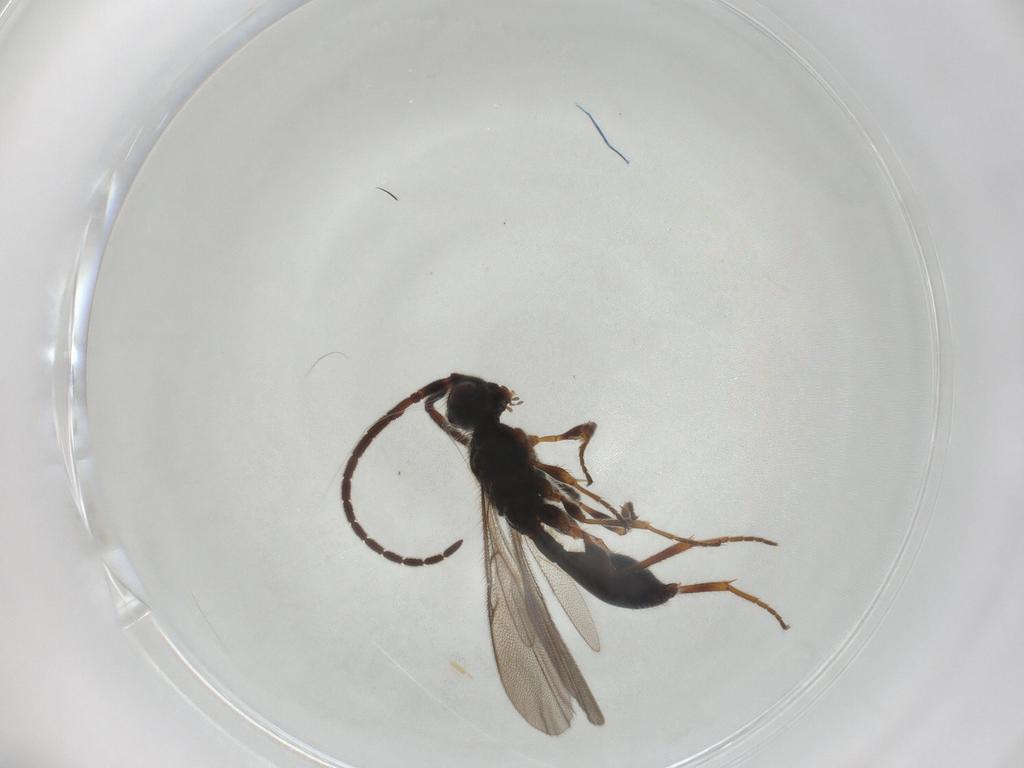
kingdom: Animalia
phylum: Arthropoda
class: Insecta
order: Hymenoptera
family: Ichneumonidae
